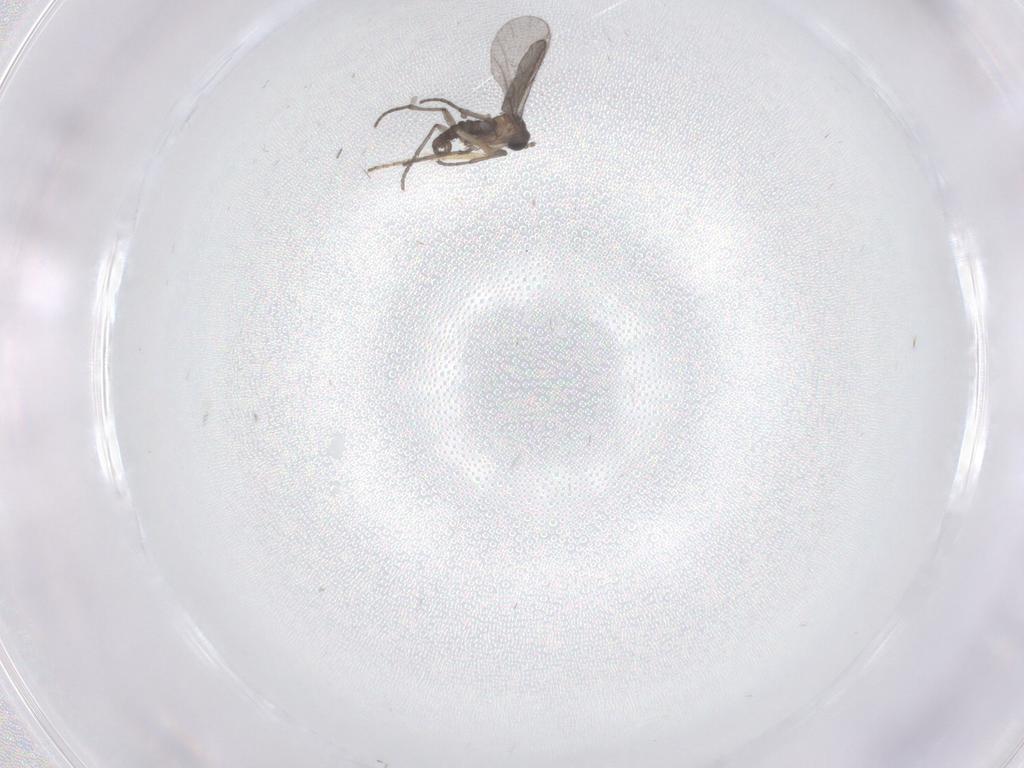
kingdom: Animalia
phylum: Arthropoda
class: Insecta
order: Diptera
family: Sciaridae
